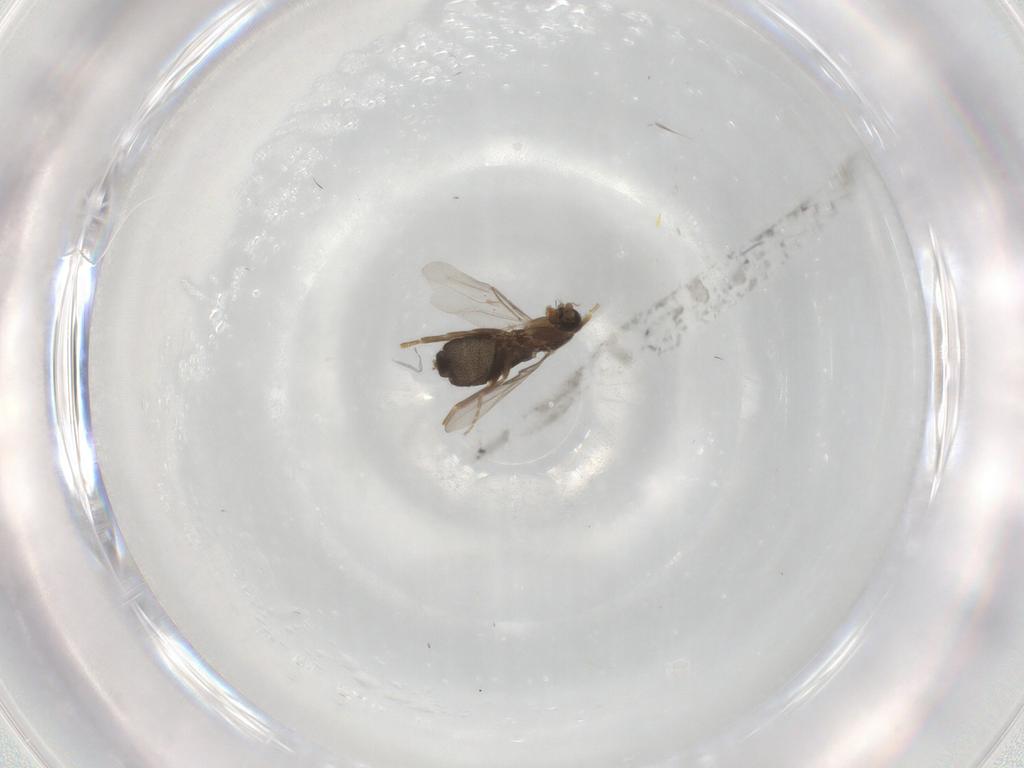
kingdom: Animalia
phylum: Arthropoda
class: Insecta
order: Diptera
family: Phoridae
